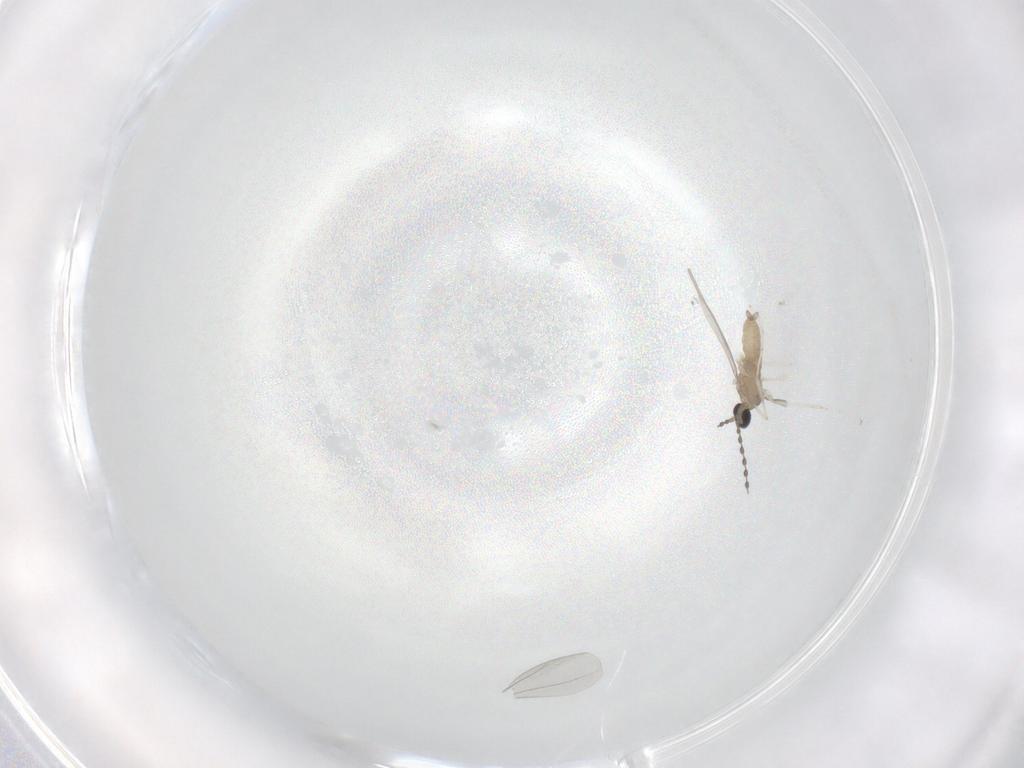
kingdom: Animalia
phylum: Arthropoda
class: Insecta
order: Diptera
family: Cecidomyiidae
